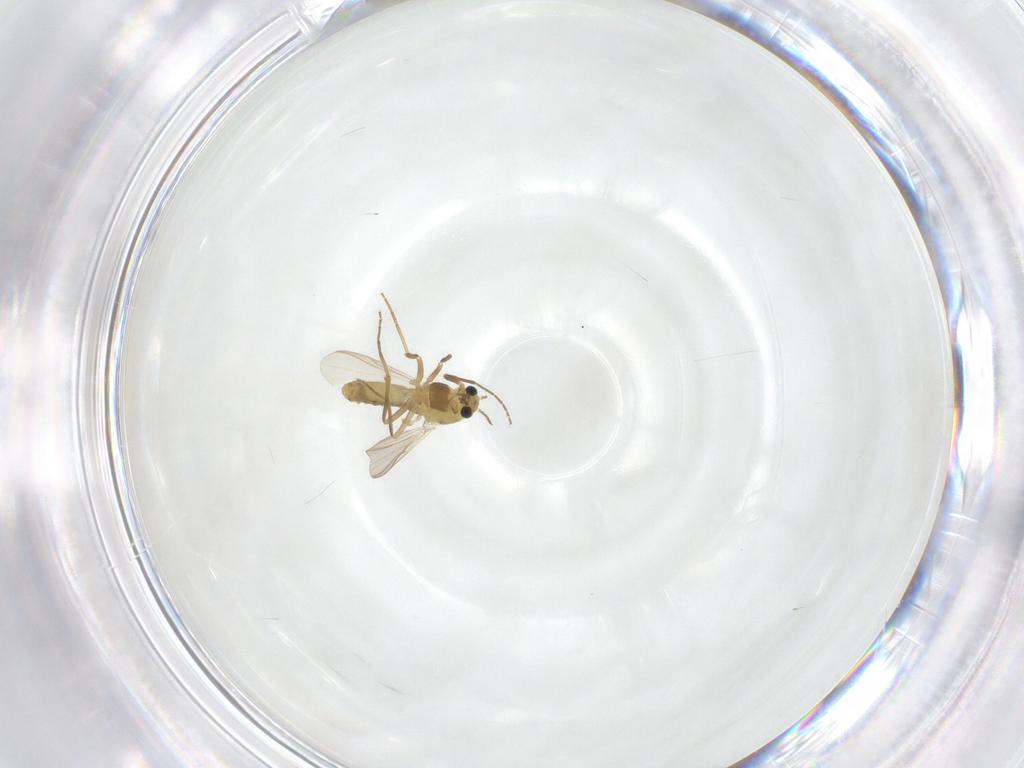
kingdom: Animalia
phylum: Arthropoda
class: Insecta
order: Diptera
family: Chironomidae
